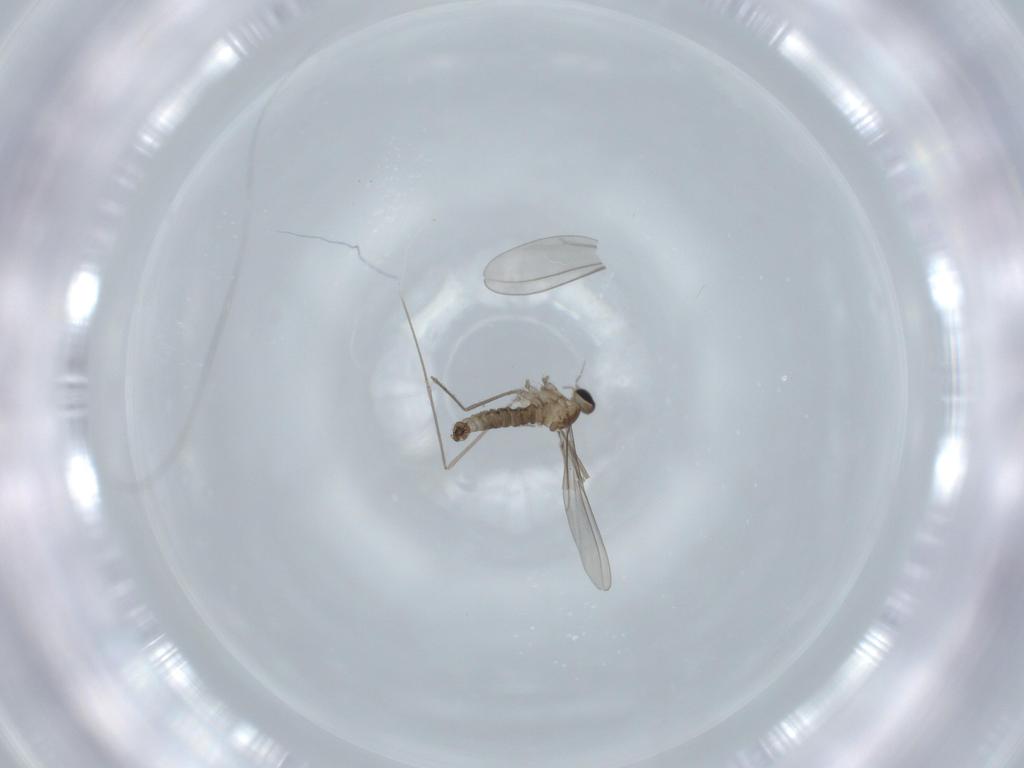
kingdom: Animalia
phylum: Arthropoda
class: Insecta
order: Diptera
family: Cecidomyiidae
